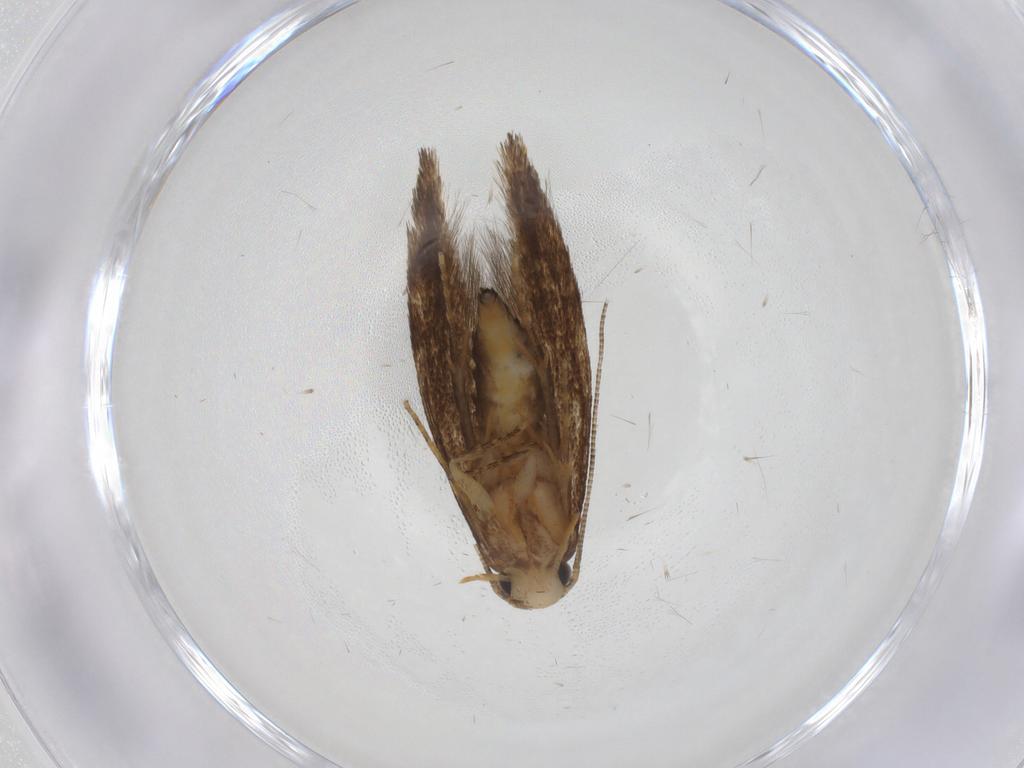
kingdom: Animalia
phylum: Arthropoda
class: Insecta
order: Lepidoptera
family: Tineidae
